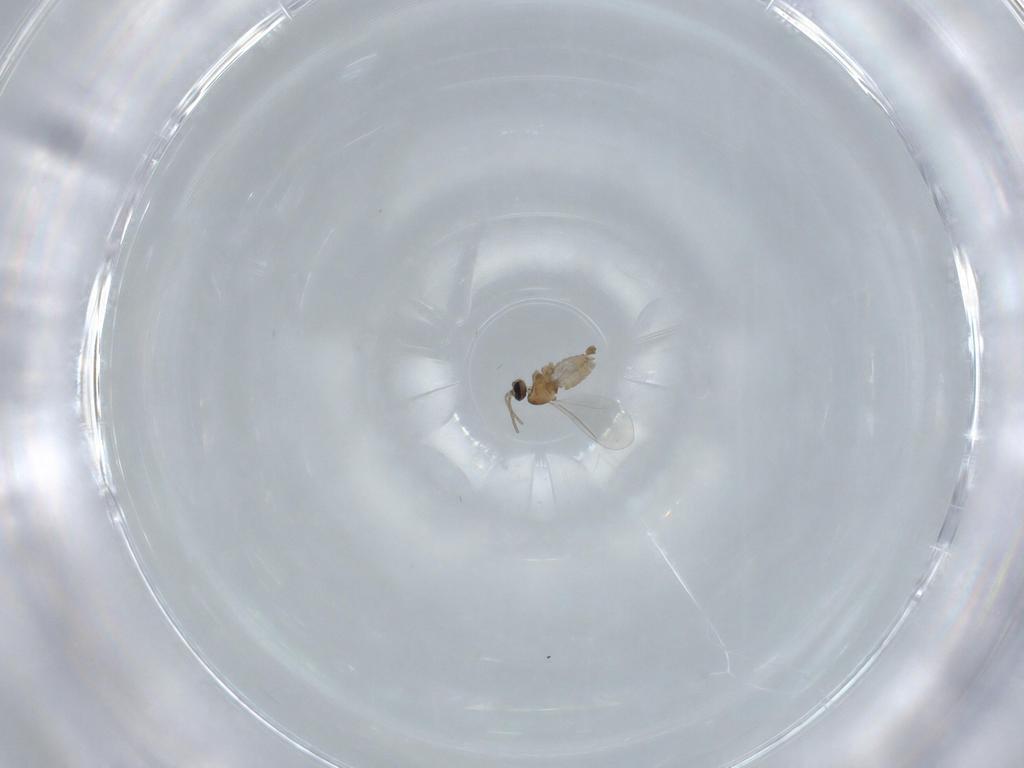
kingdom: Animalia
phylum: Arthropoda
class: Insecta
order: Diptera
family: Cecidomyiidae
